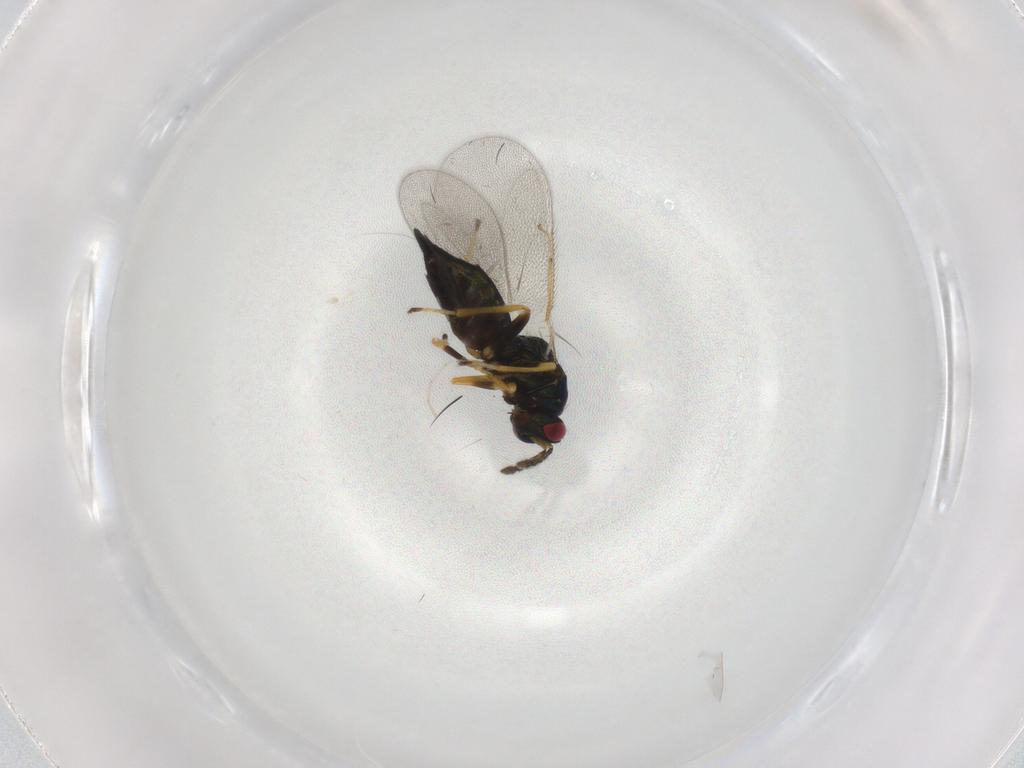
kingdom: Animalia
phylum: Arthropoda
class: Insecta
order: Hymenoptera
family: Eulophidae
